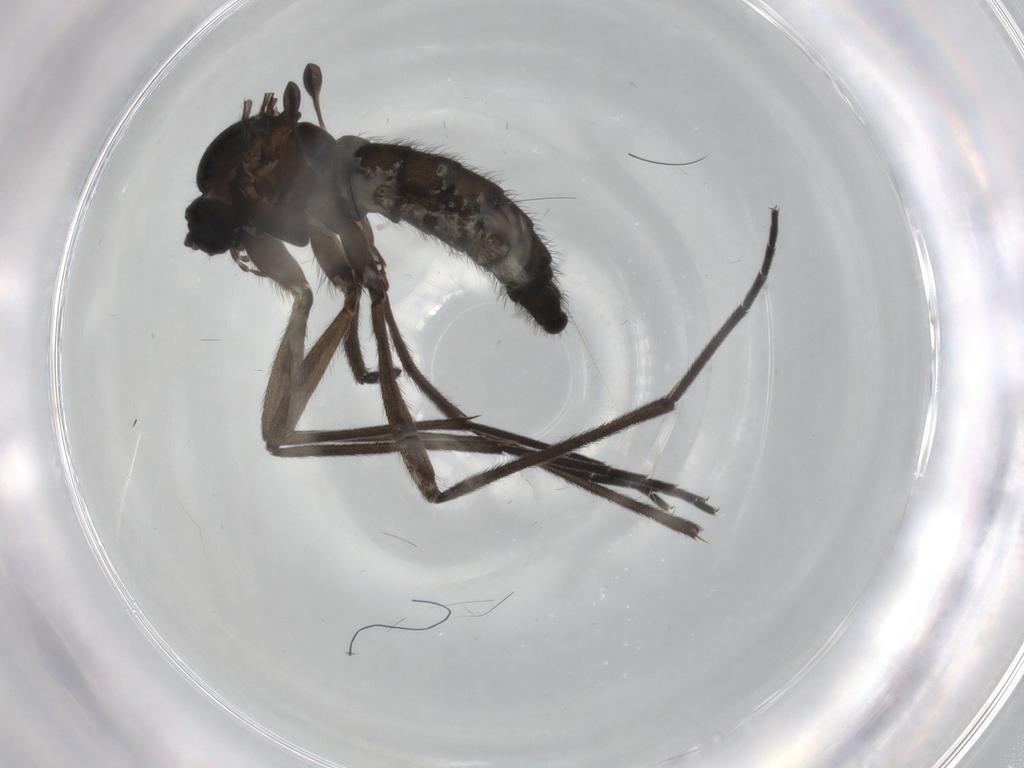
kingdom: Animalia
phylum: Arthropoda
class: Insecta
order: Diptera
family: Sciaridae
